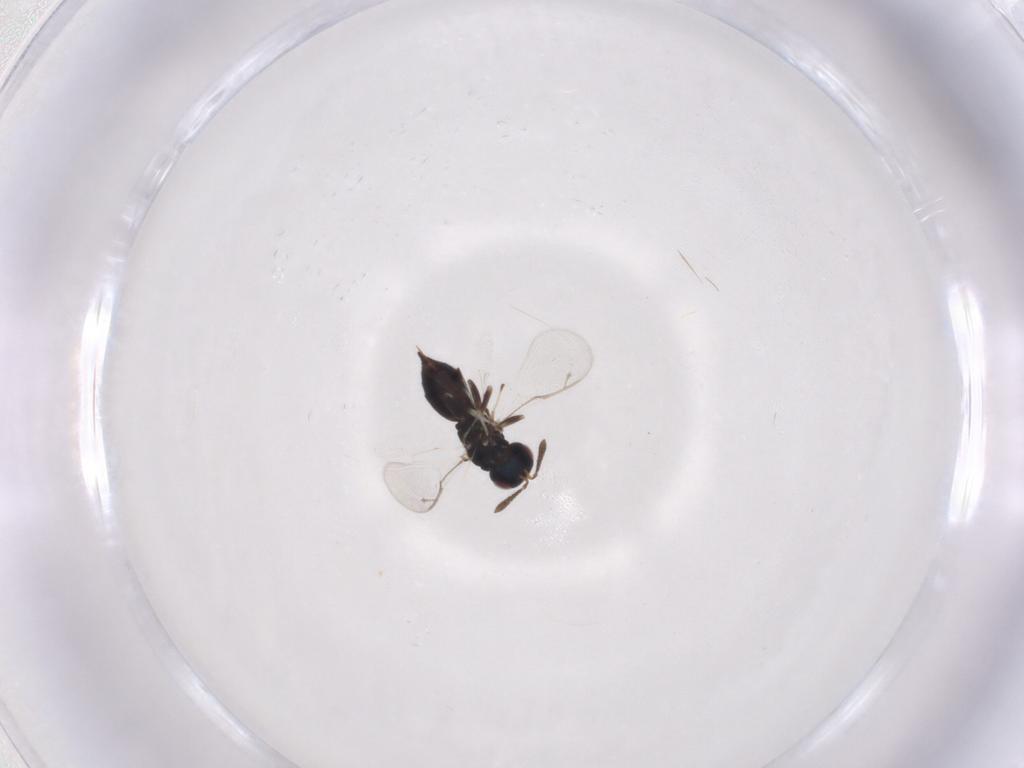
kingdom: Animalia
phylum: Arthropoda
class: Insecta
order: Hymenoptera
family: Pteromalidae
